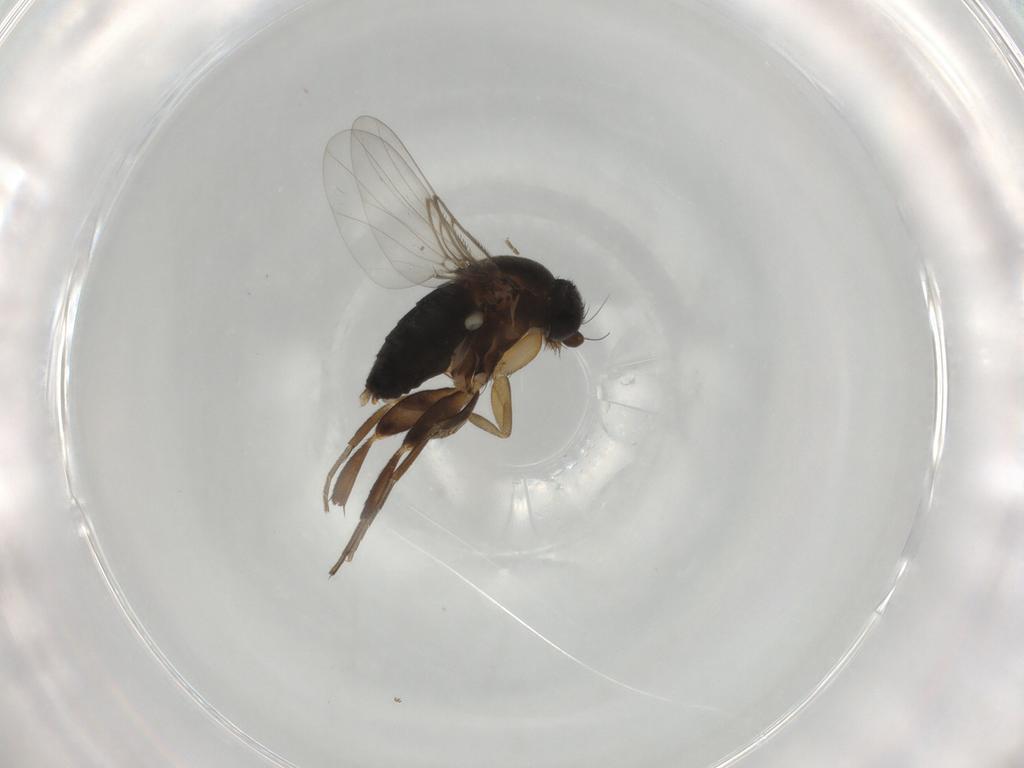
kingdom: Animalia
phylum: Arthropoda
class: Insecta
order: Diptera
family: Phoridae
